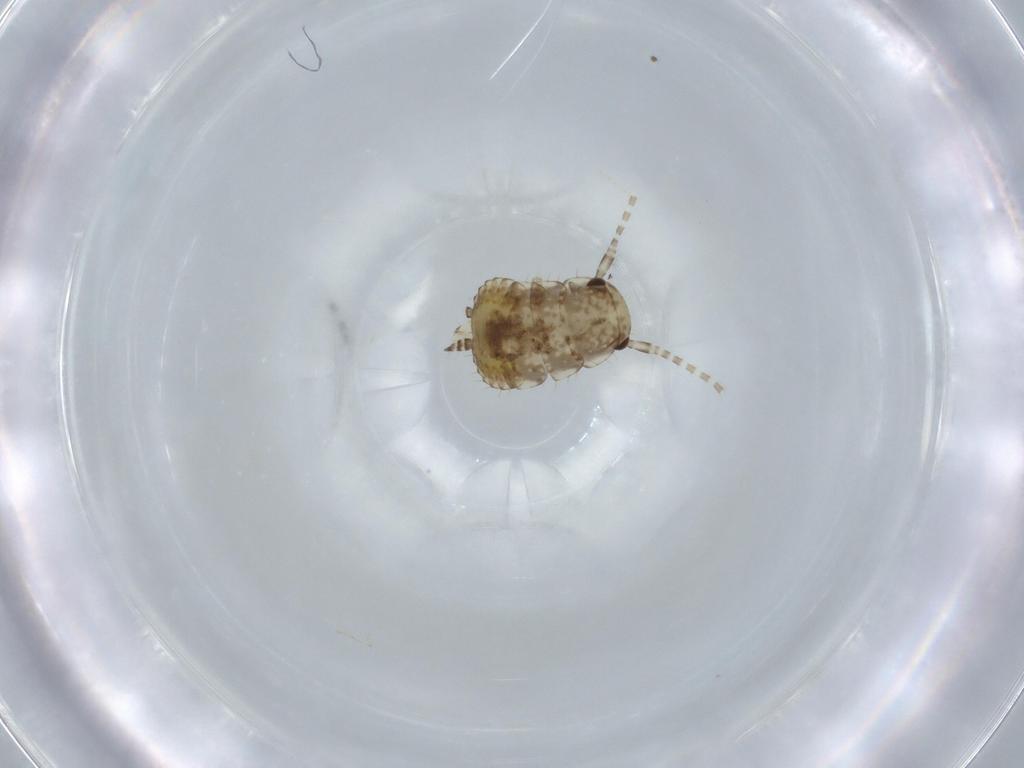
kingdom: Animalia
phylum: Arthropoda
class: Insecta
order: Blattodea
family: Ectobiidae
